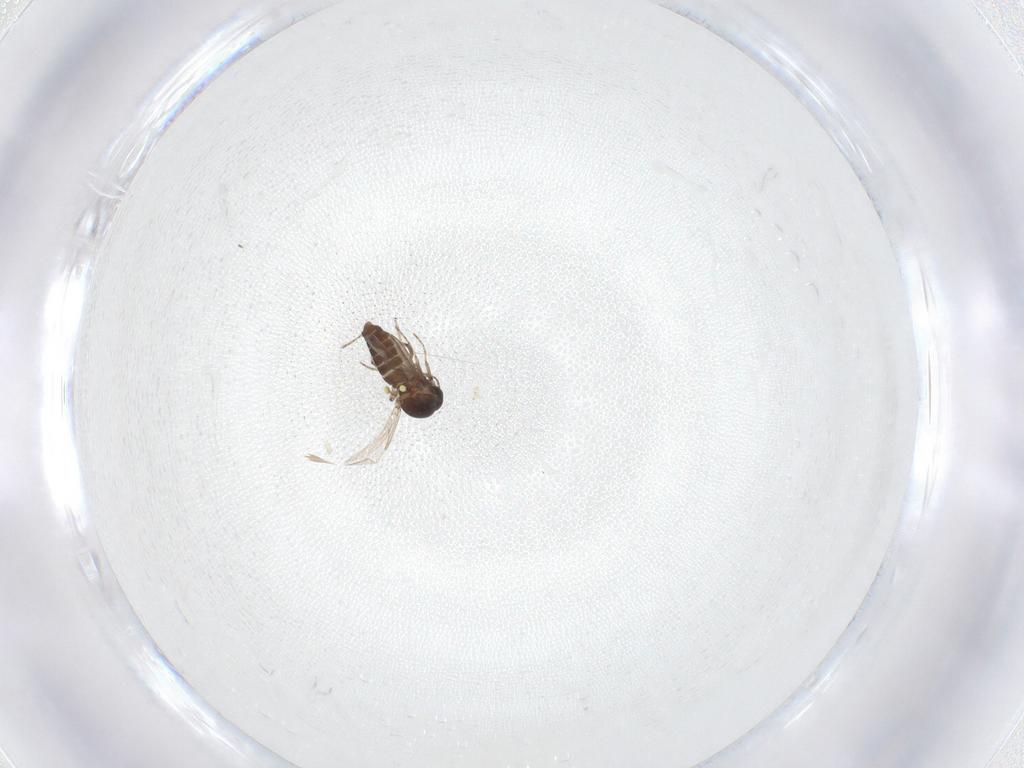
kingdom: Animalia
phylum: Arthropoda
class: Insecta
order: Diptera
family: Ceratopogonidae
